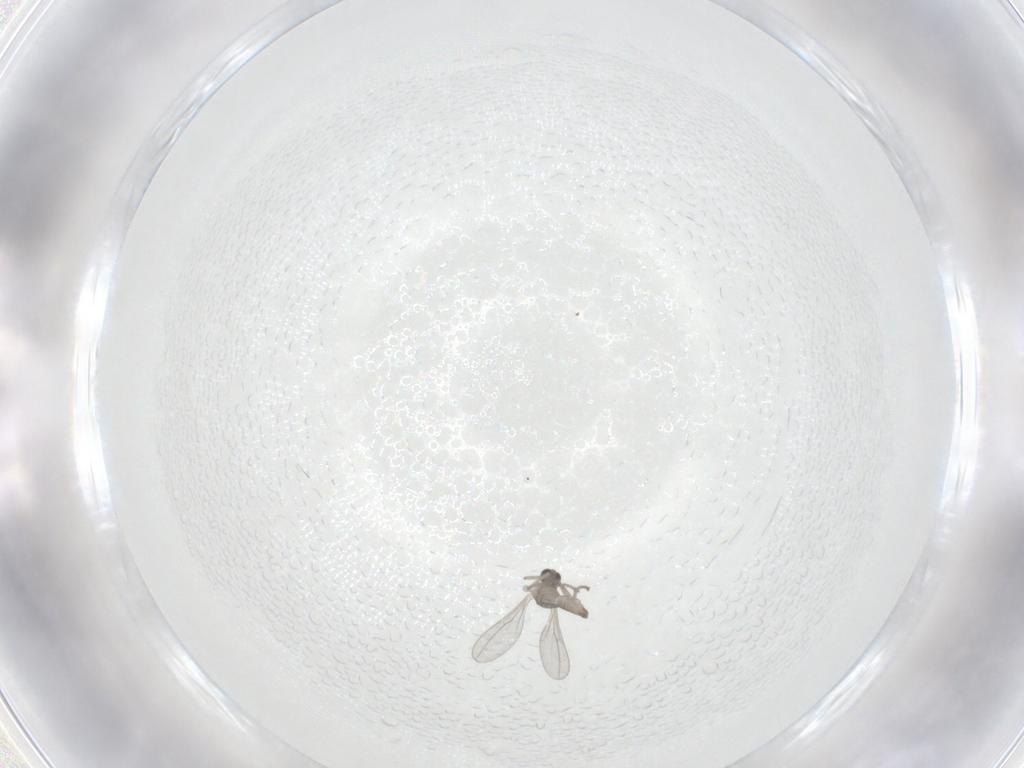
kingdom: Animalia
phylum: Arthropoda
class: Insecta
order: Diptera
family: Cecidomyiidae
